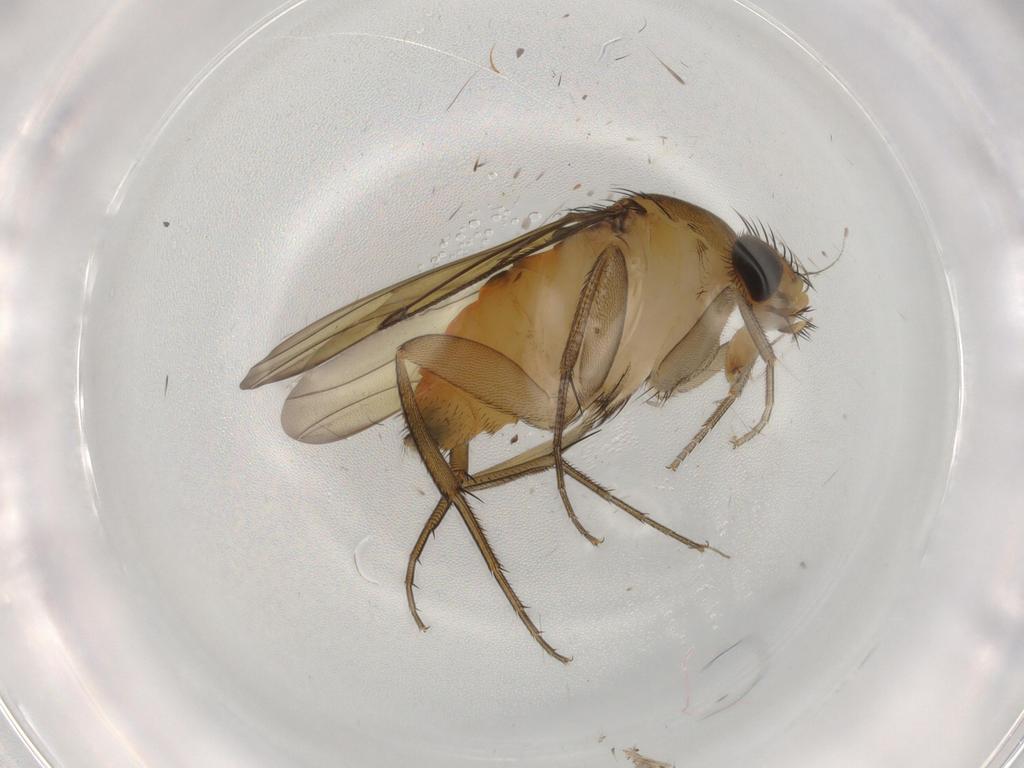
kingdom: Animalia
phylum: Arthropoda
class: Insecta
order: Diptera
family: Phoridae
